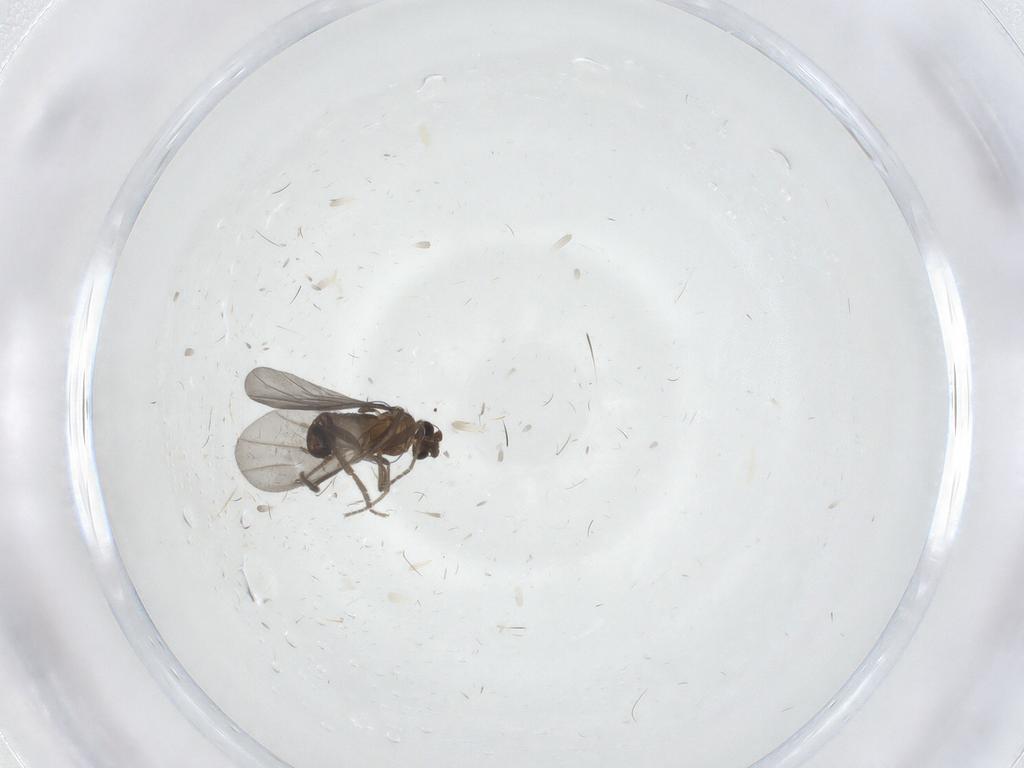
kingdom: Animalia
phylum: Arthropoda
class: Insecta
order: Diptera
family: Phoridae
